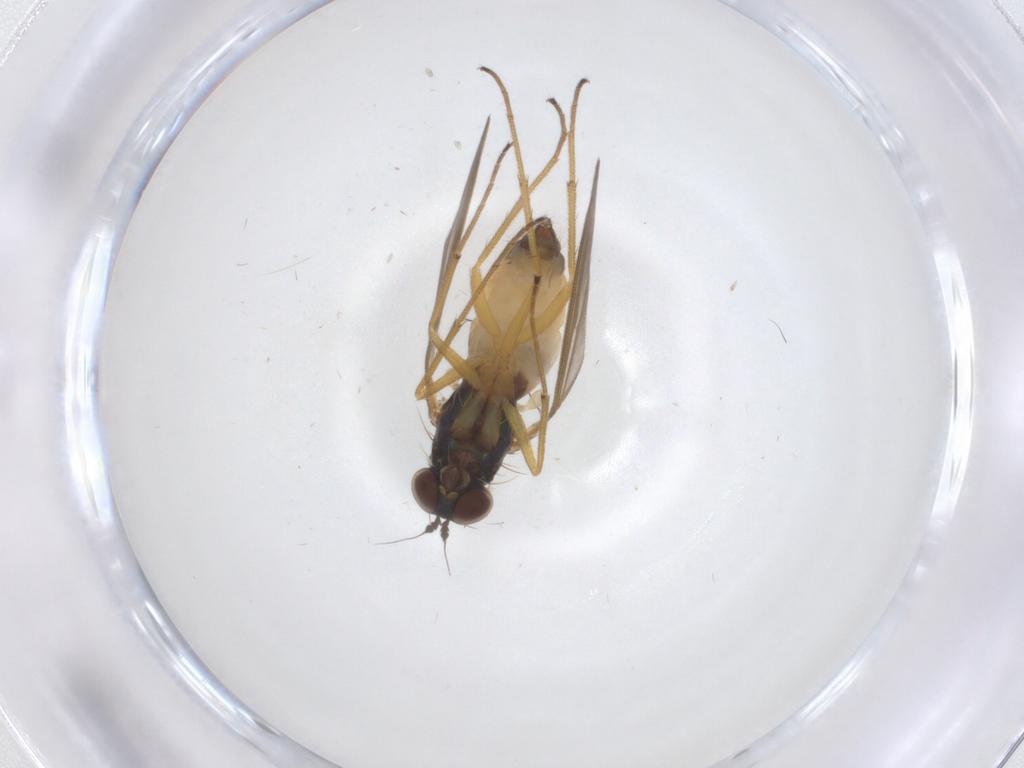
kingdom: Animalia
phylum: Arthropoda
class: Insecta
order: Diptera
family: Dolichopodidae
